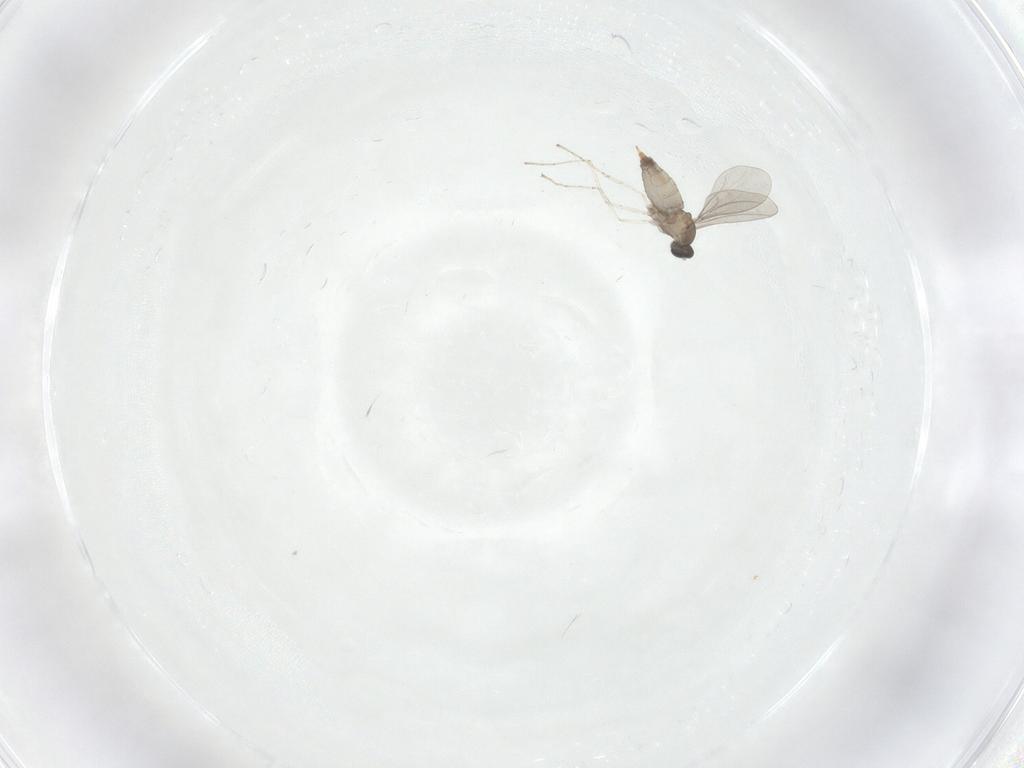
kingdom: Animalia
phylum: Arthropoda
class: Insecta
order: Diptera
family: Cecidomyiidae
